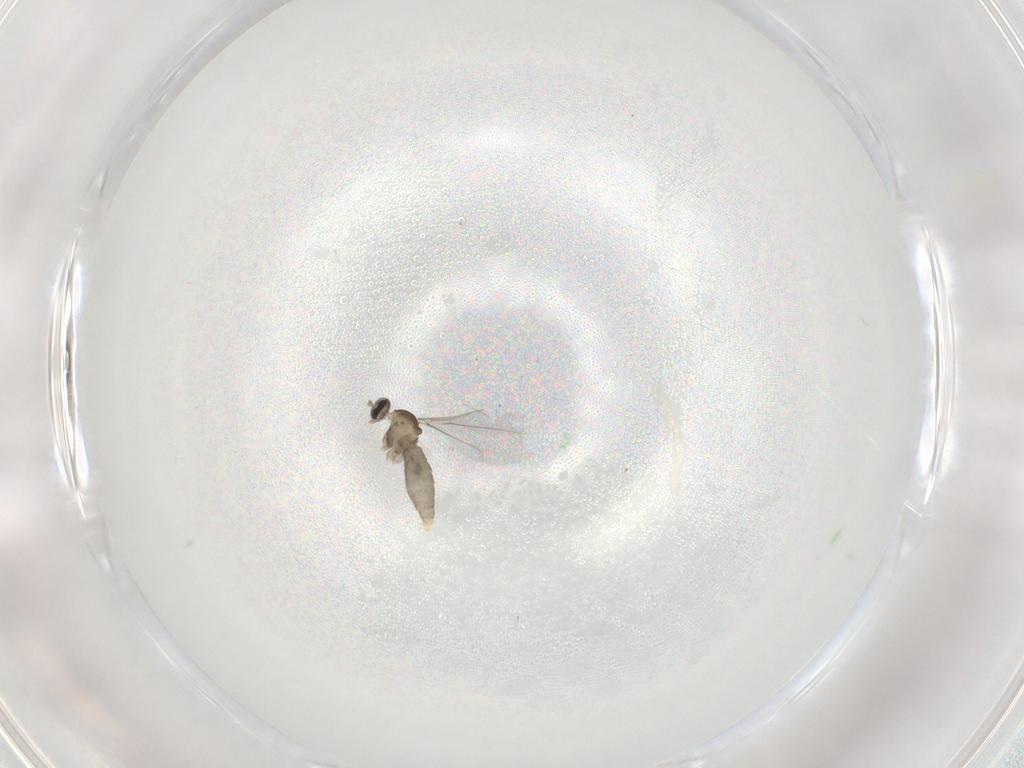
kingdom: Animalia
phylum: Arthropoda
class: Insecta
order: Diptera
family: Cecidomyiidae
